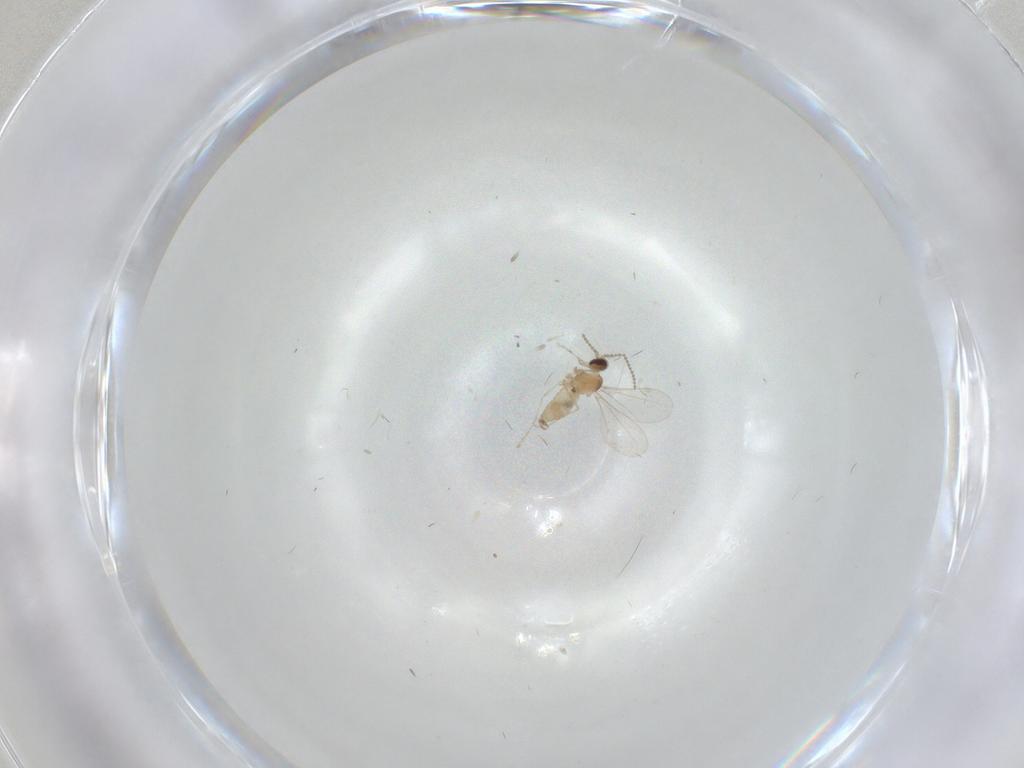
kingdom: Animalia
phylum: Arthropoda
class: Insecta
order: Diptera
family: Cecidomyiidae
